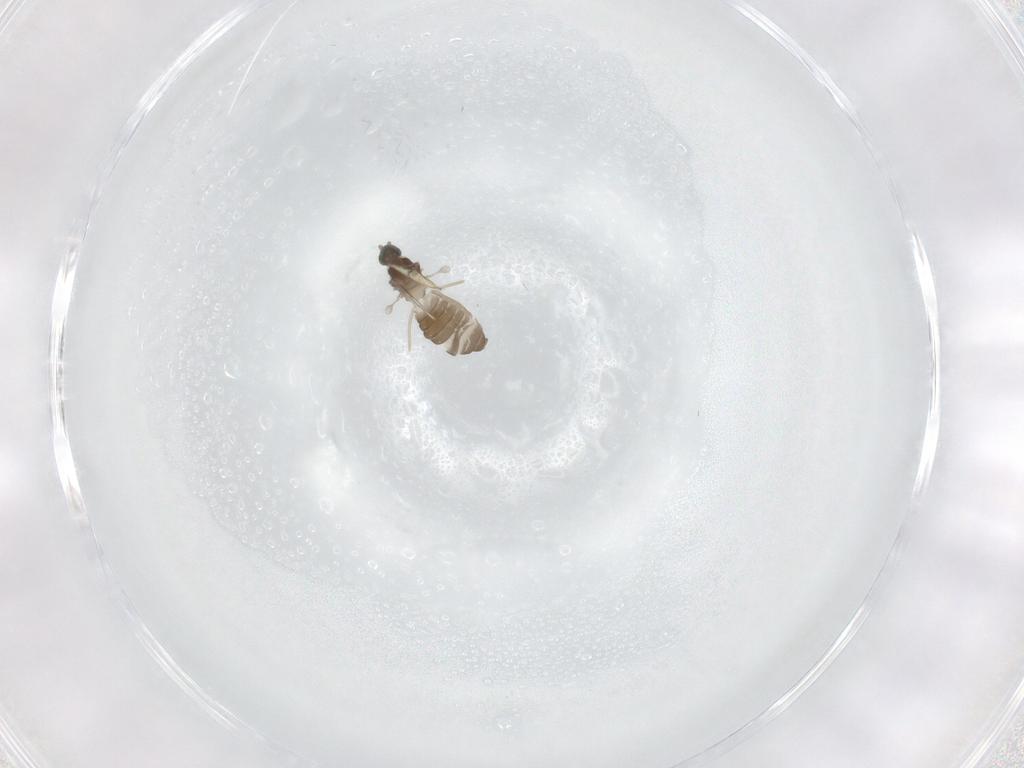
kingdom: Animalia
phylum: Arthropoda
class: Insecta
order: Diptera
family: Cecidomyiidae
